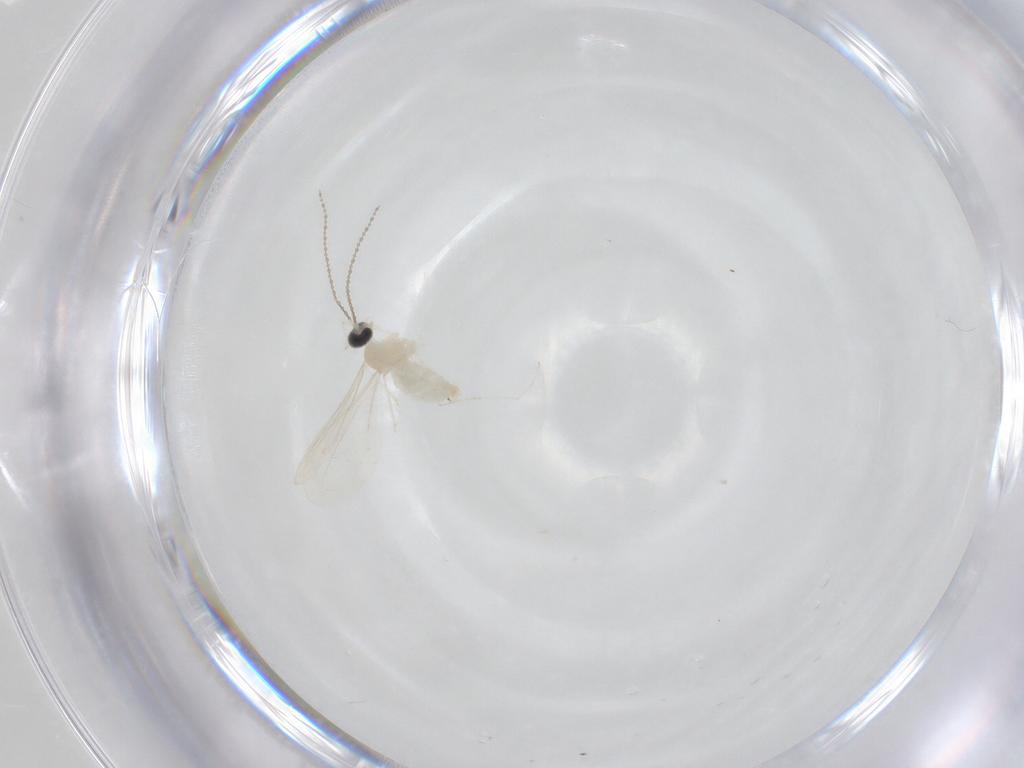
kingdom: Animalia
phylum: Arthropoda
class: Insecta
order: Diptera
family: Cecidomyiidae
